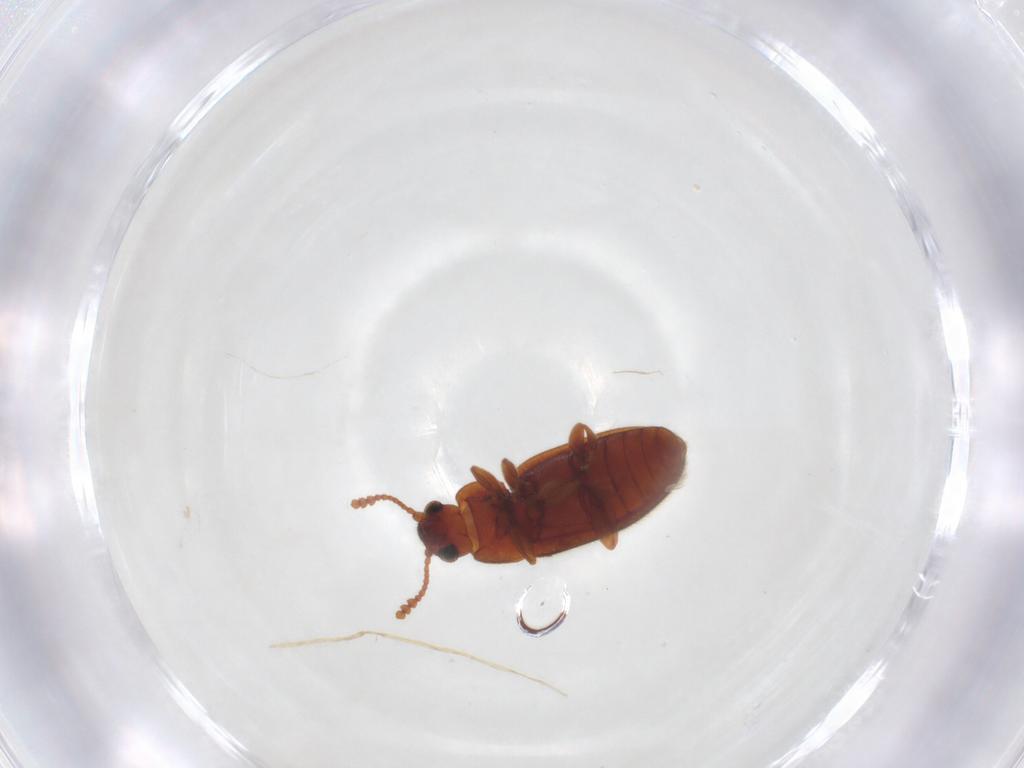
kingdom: Animalia
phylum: Arthropoda
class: Insecta
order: Coleoptera
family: Erotylidae
